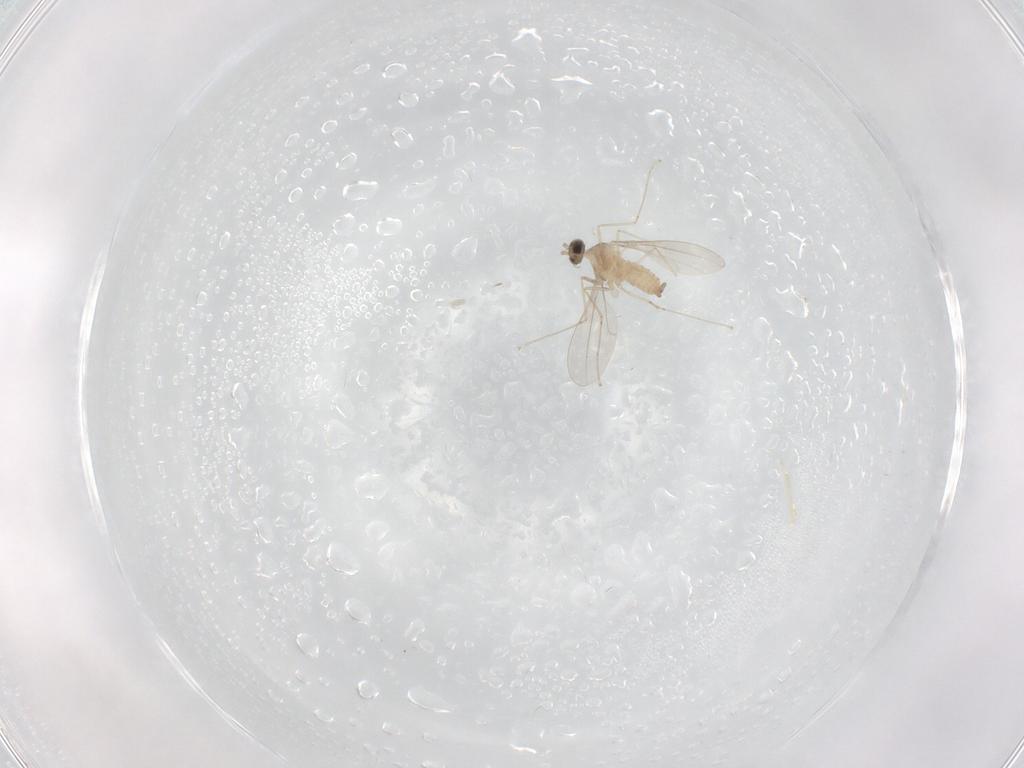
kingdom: Animalia
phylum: Arthropoda
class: Insecta
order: Diptera
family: Cecidomyiidae
